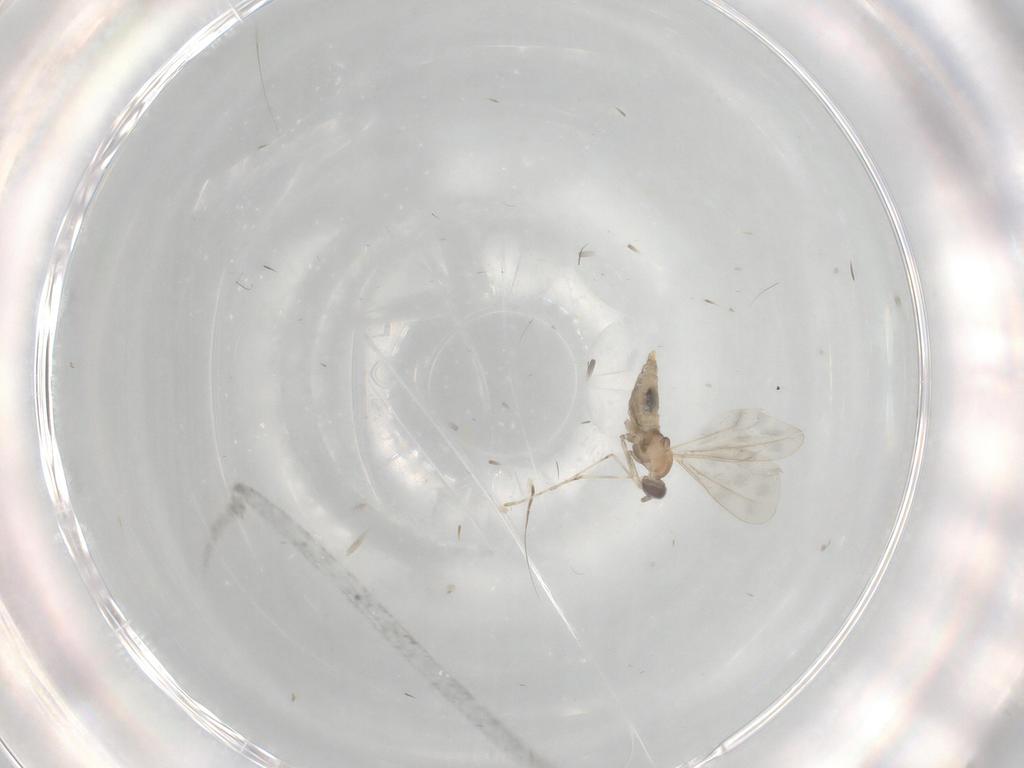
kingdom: Animalia
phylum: Arthropoda
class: Insecta
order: Diptera
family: Cecidomyiidae
